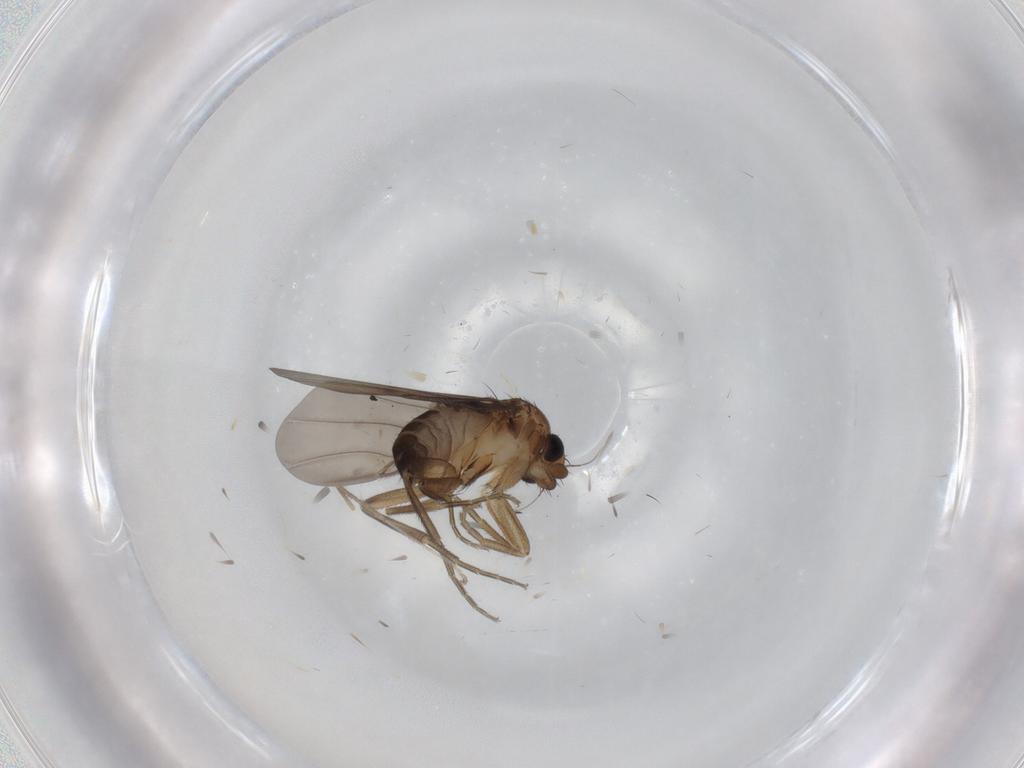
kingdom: Animalia
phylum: Arthropoda
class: Insecta
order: Diptera
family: Phoridae
